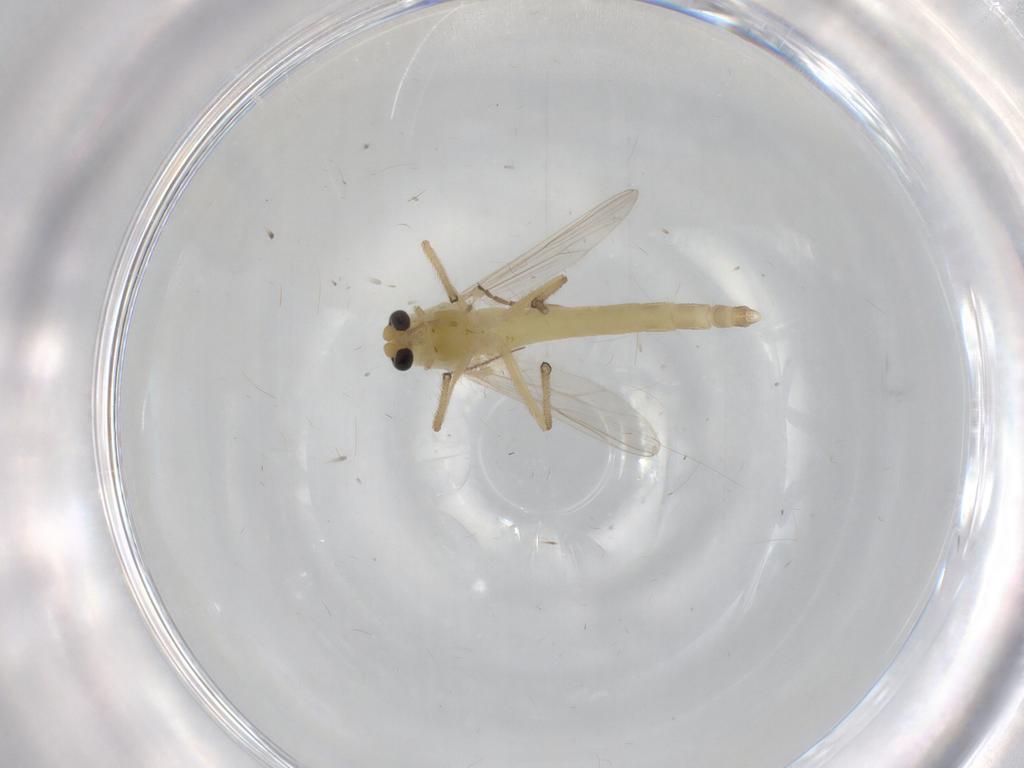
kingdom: Animalia
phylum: Arthropoda
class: Insecta
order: Diptera
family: Chironomidae
